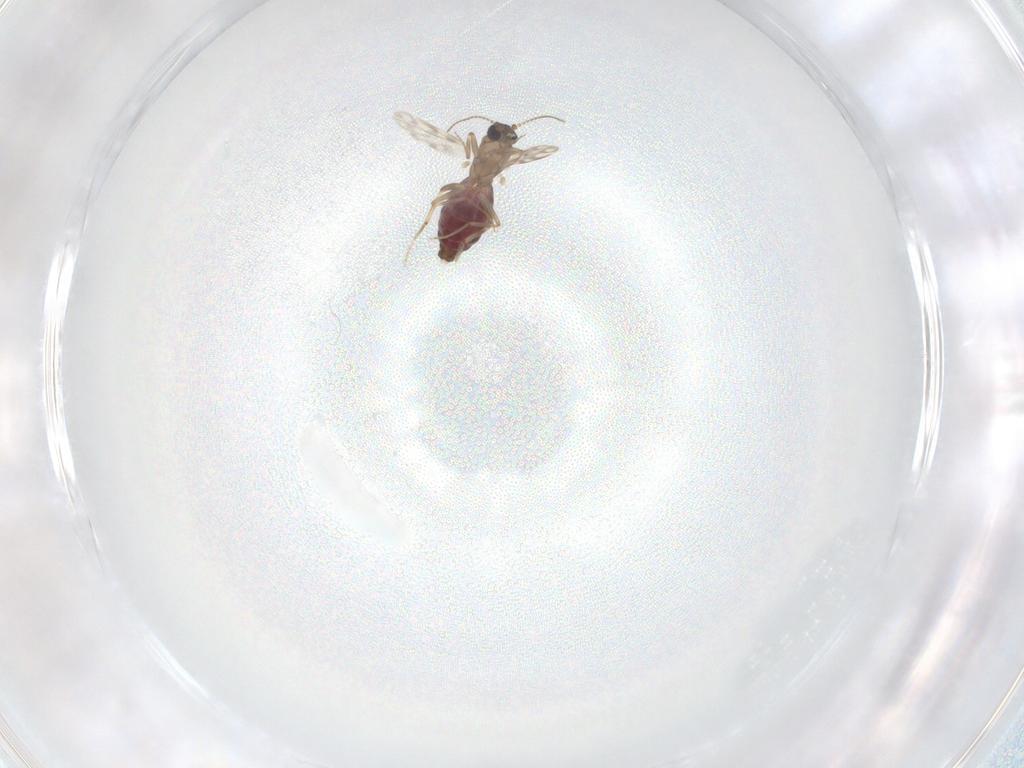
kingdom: Animalia
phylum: Arthropoda
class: Insecta
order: Diptera
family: Ceratopogonidae
